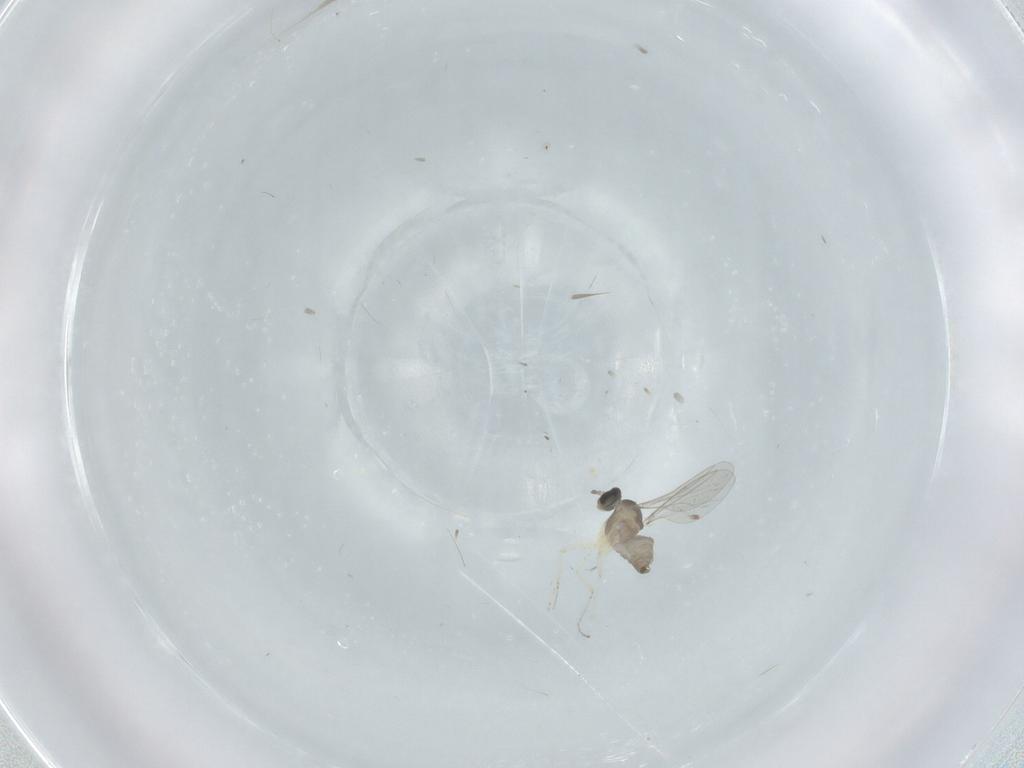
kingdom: Animalia
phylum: Arthropoda
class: Insecta
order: Diptera
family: Cecidomyiidae
